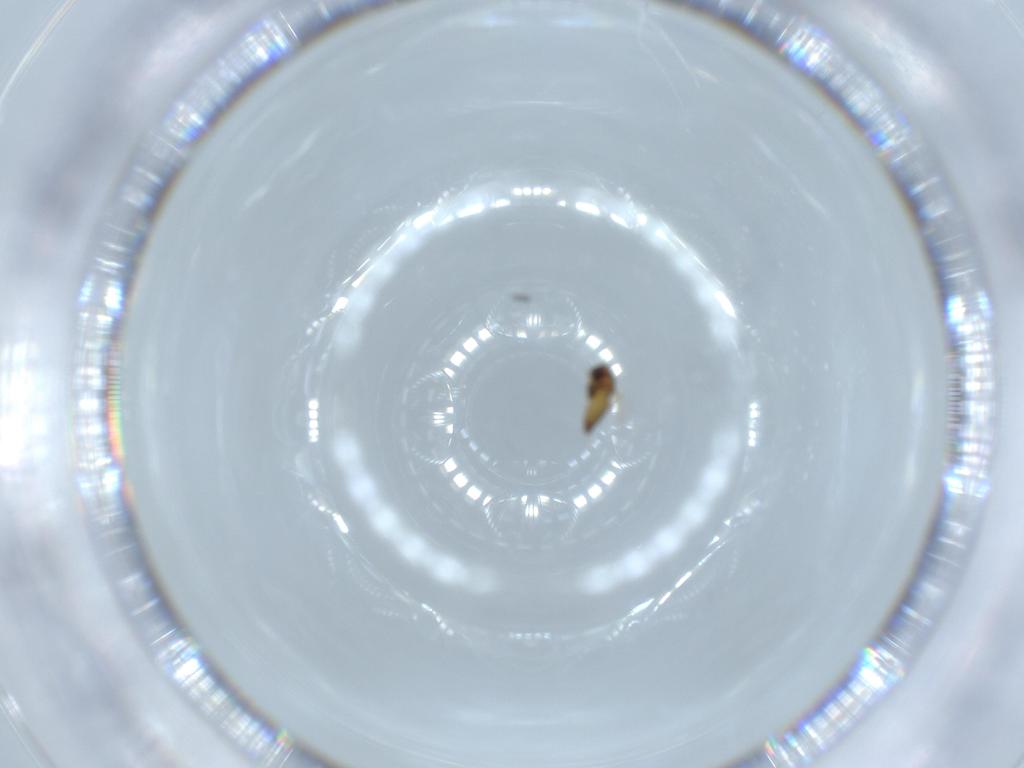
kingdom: Animalia
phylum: Arthropoda
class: Insecta
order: Diptera
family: Chironomidae
